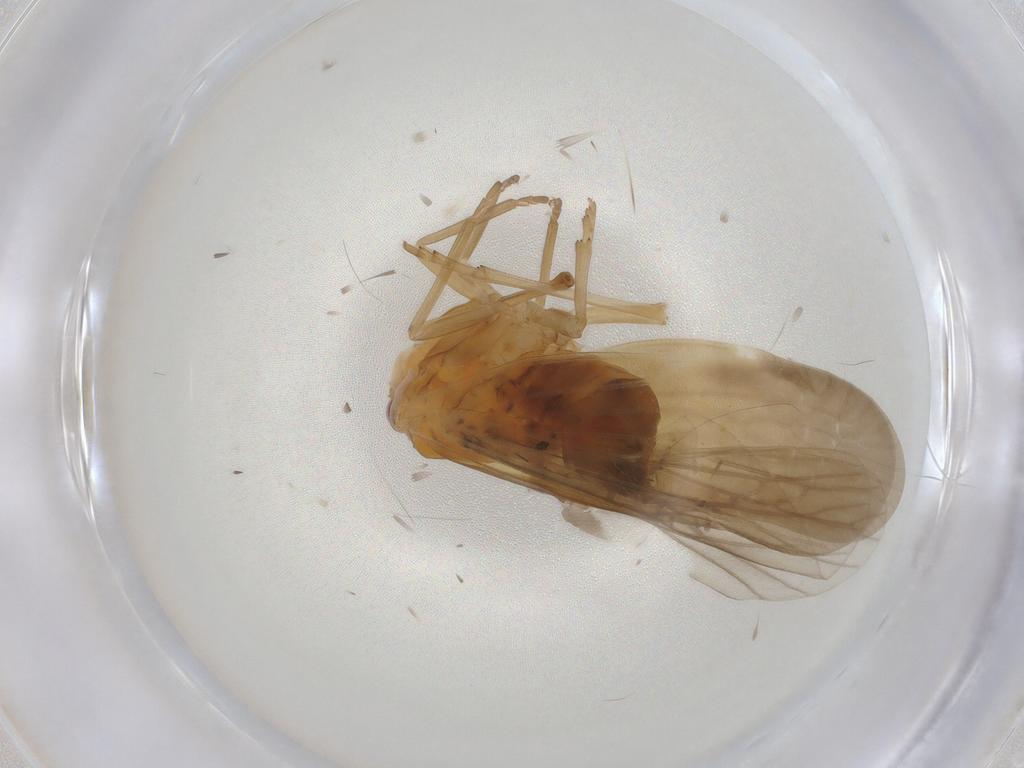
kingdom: Animalia
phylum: Arthropoda
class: Insecta
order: Hemiptera
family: Derbidae
